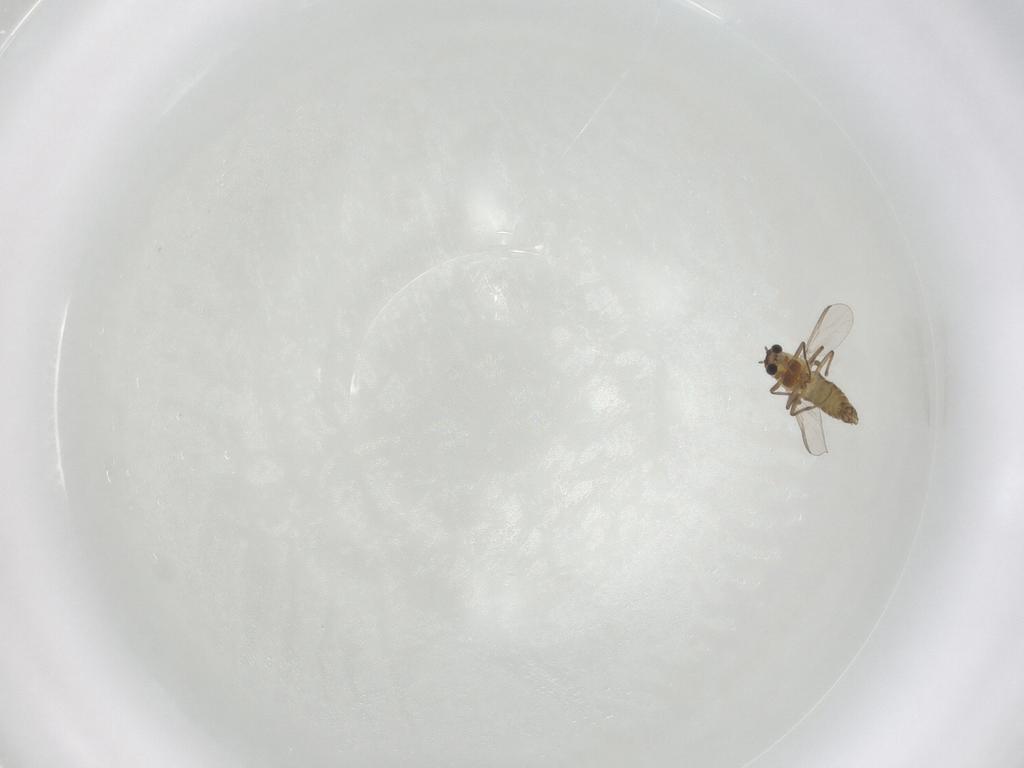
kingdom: Animalia
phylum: Arthropoda
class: Insecta
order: Diptera
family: Chironomidae
